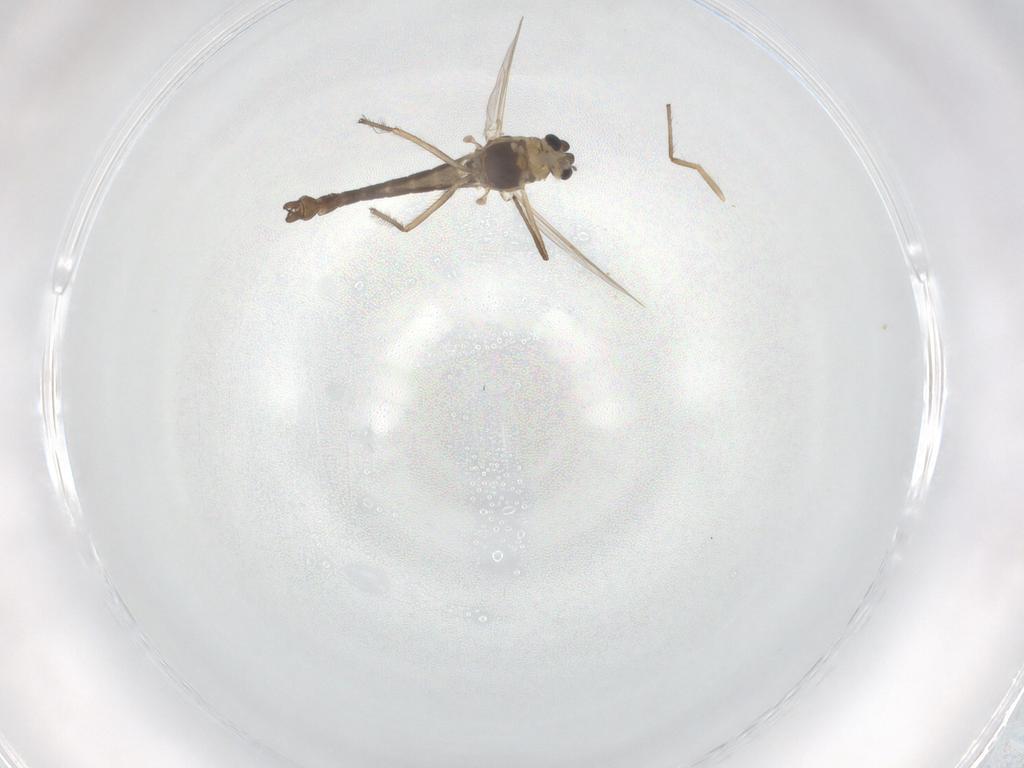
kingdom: Animalia
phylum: Arthropoda
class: Insecta
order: Diptera
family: Chironomidae
